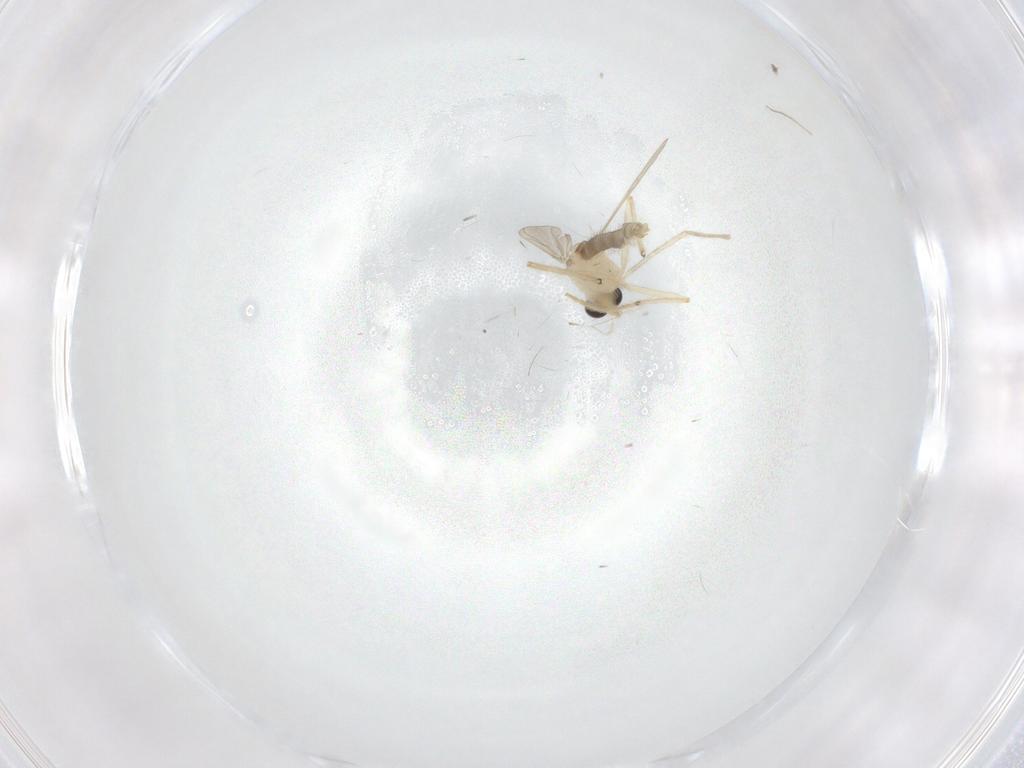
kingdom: Animalia
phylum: Arthropoda
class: Insecta
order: Diptera
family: Chironomidae
